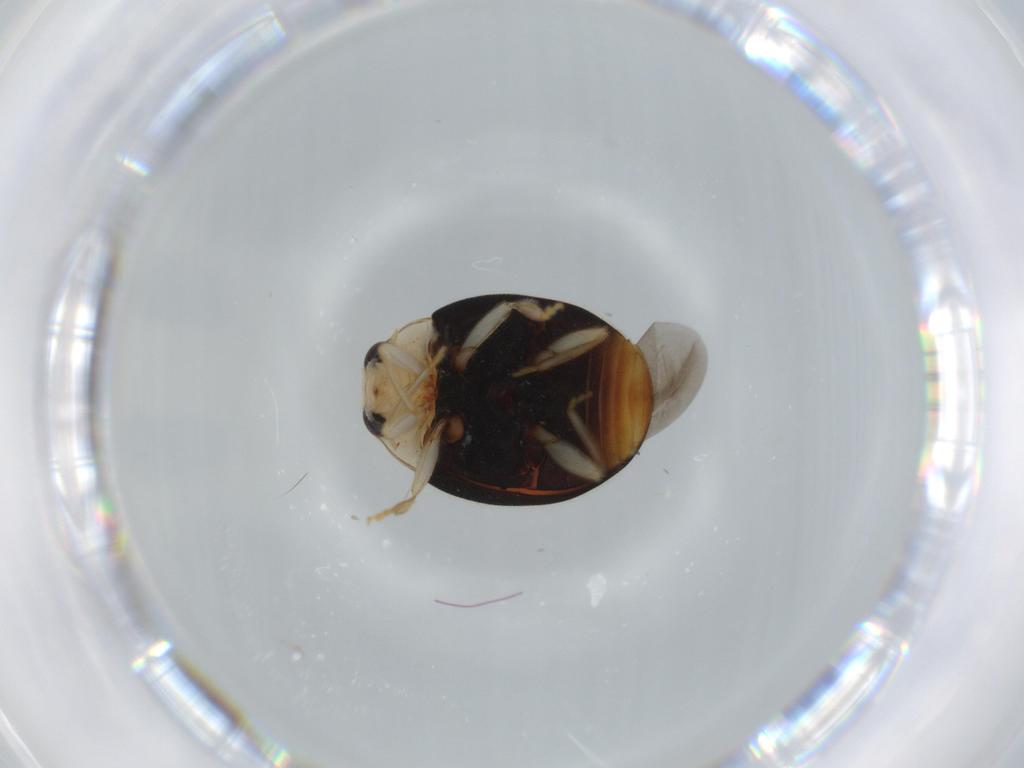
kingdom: Animalia
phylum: Arthropoda
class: Insecta
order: Coleoptera
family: Coccinellidae
